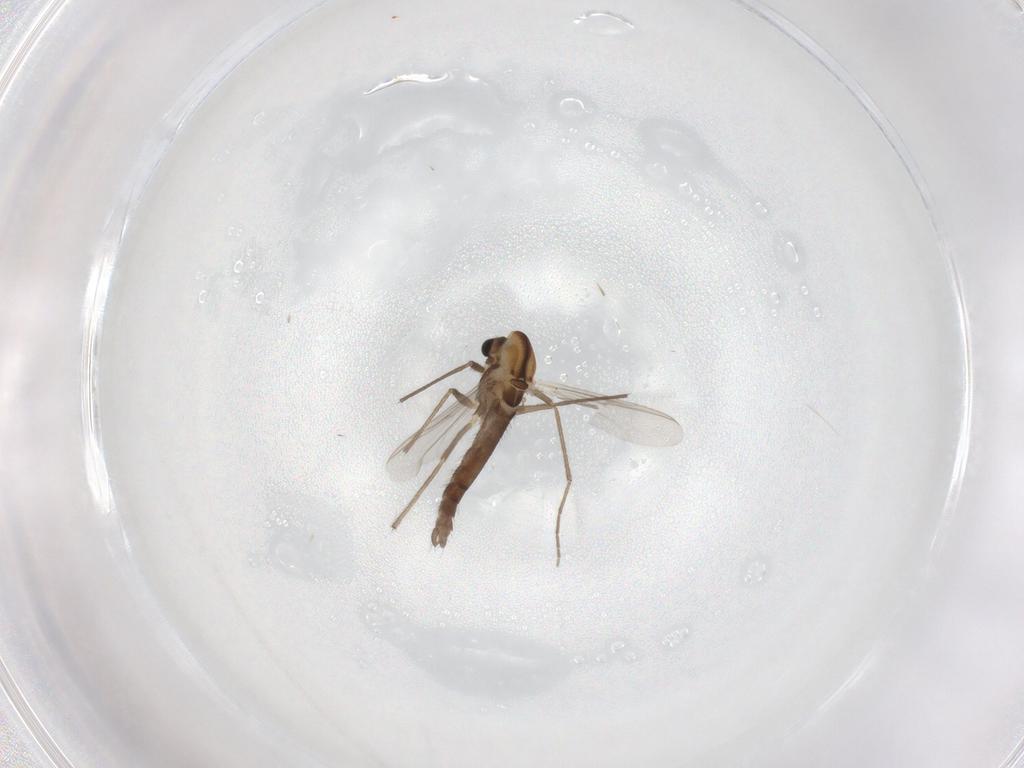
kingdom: Animalia
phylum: Arthropoda
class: Insecta
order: Diptera
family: Chironomidae
